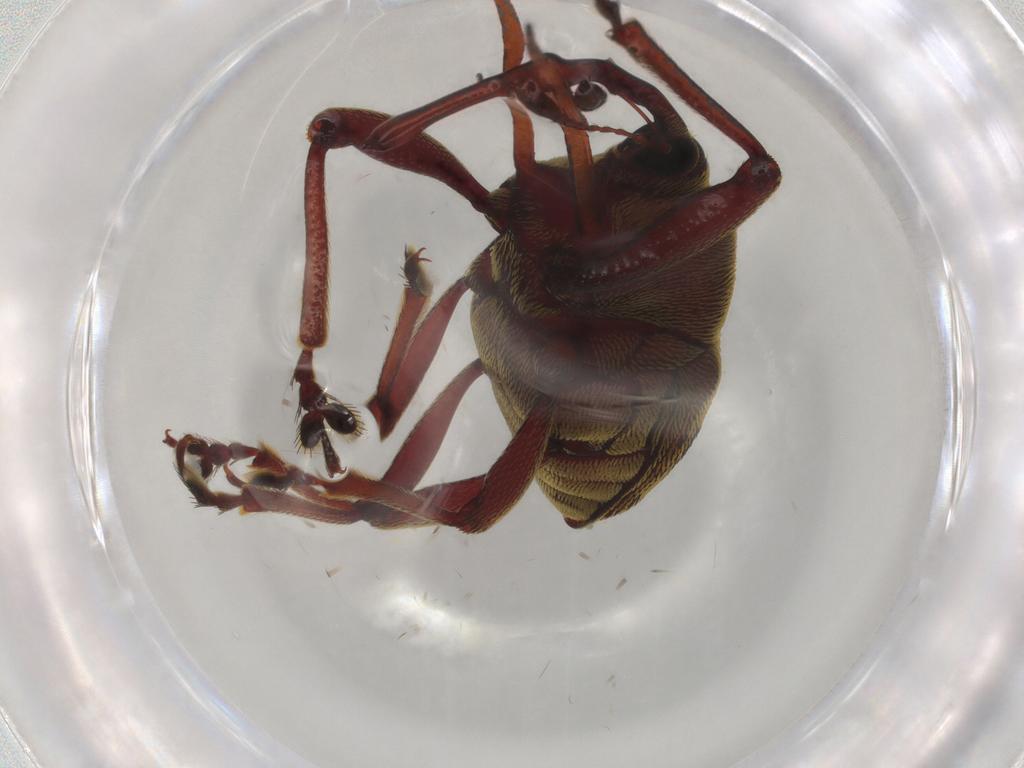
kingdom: Animalia
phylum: Arthropoda
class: Insecta
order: Coleoptera
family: Curculionidae
